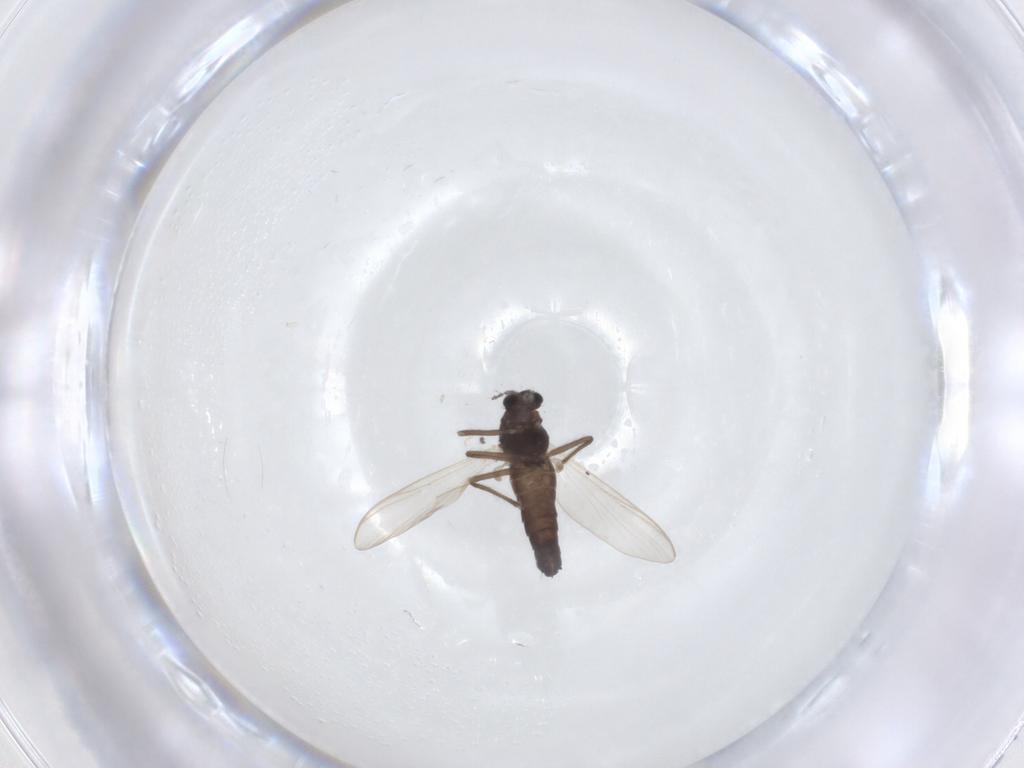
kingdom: Animalia
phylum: Arthropoda
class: Insecta
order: Diptera
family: Chironomidae
